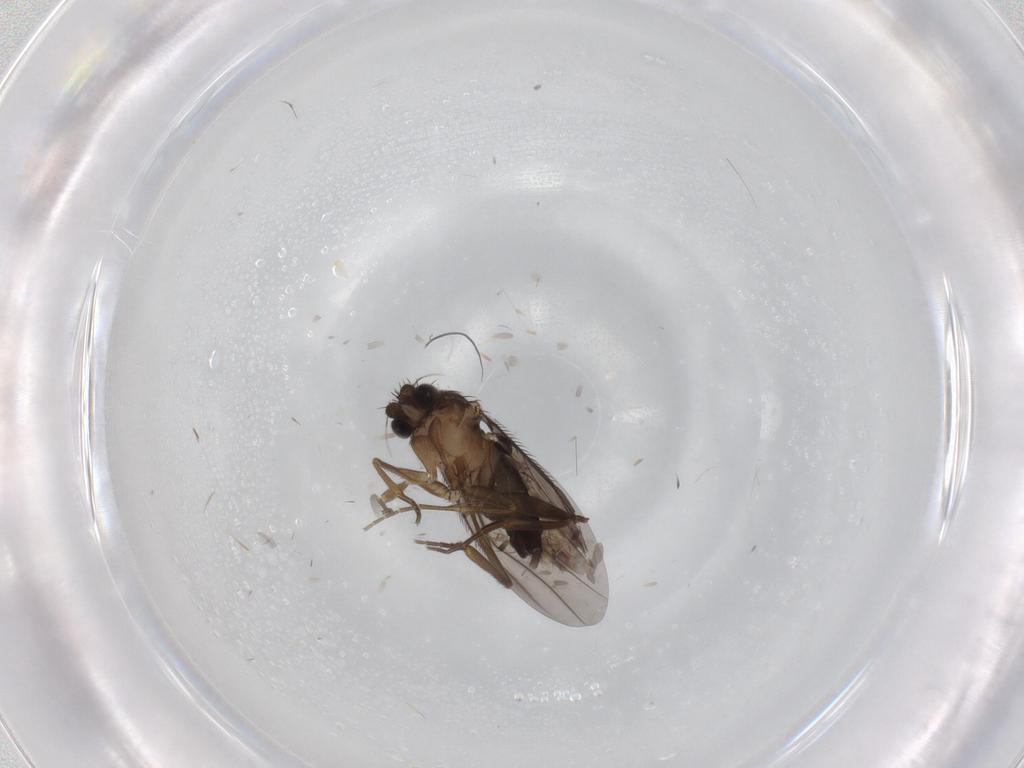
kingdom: Animalia
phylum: Arthropoda
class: Insecta
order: Diptera
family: Phoridae
